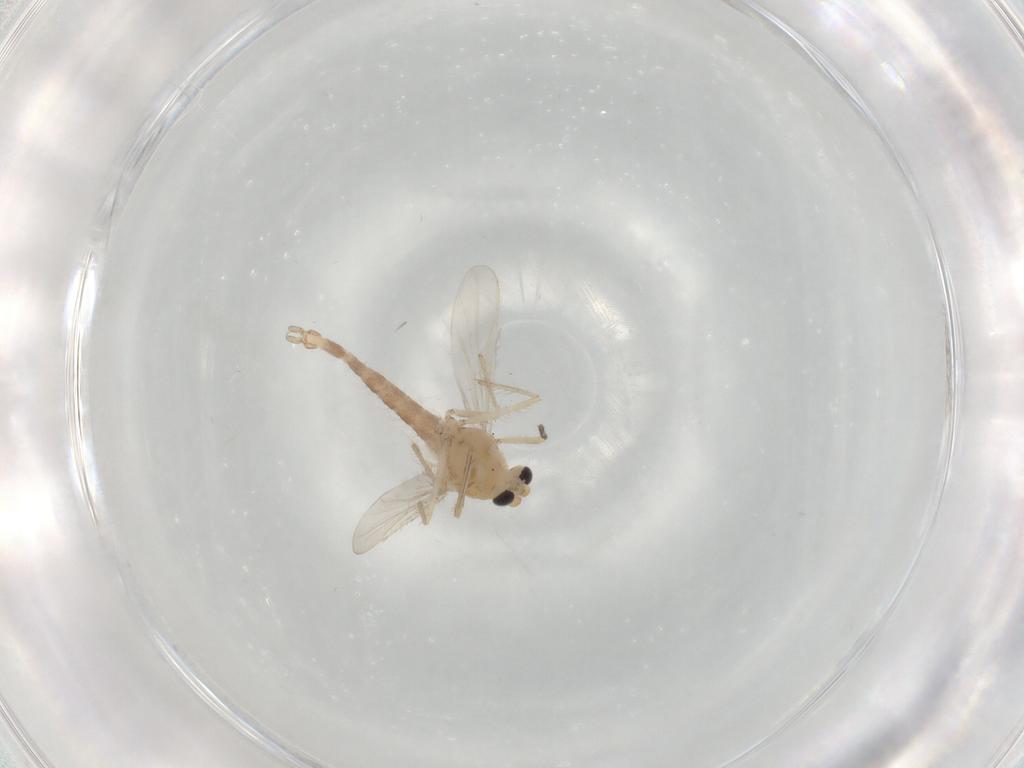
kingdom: Animalia
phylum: Arthropoda
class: Insecta
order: Diptera
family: Chironomidae
